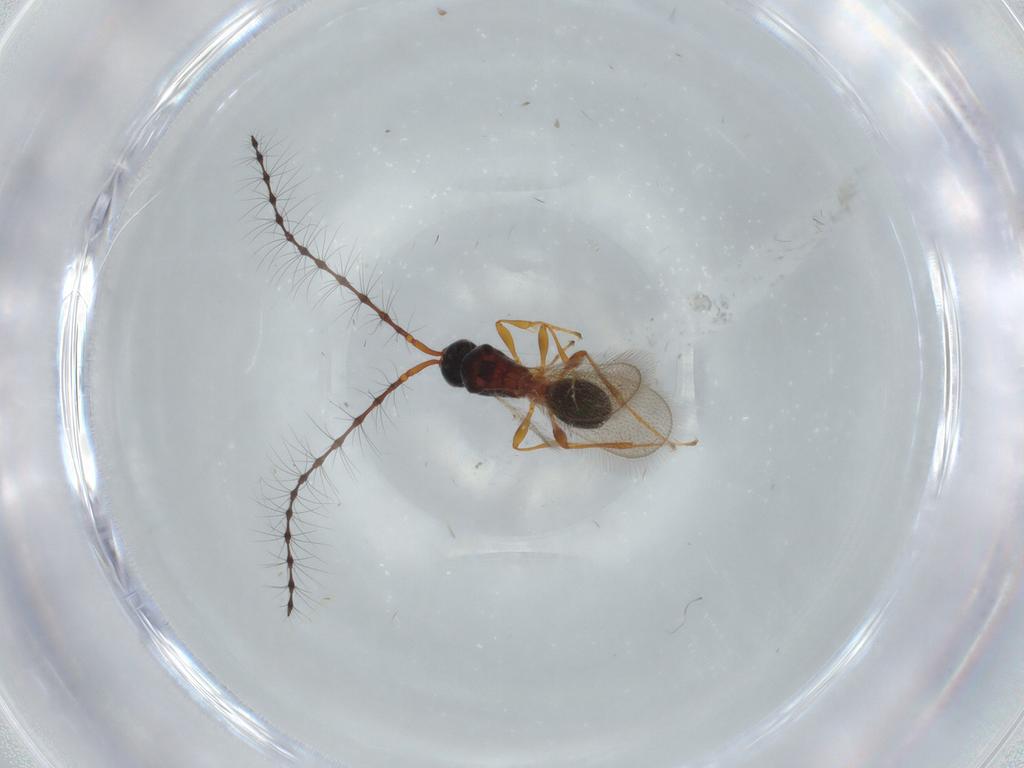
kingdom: Animalia
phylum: Arthropoda
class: Insecta
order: Hymenoptera
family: Diapriidae
